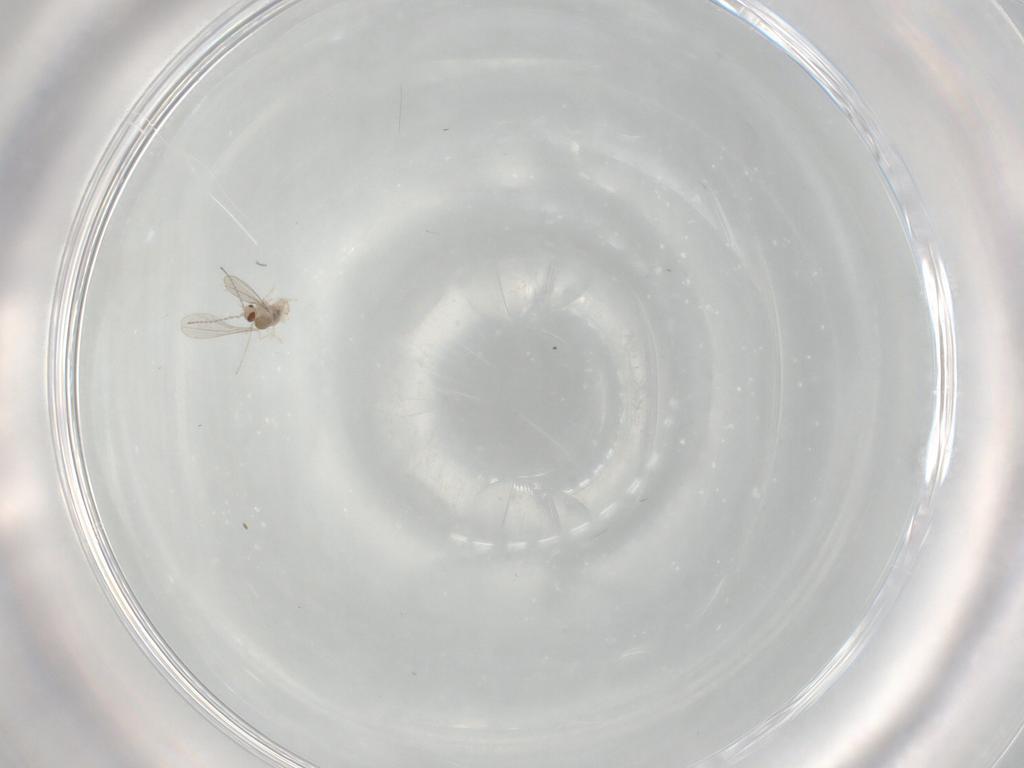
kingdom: Animalia
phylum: Arthropoda
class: Insecta
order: Diptera
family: Cecidomyiidae
